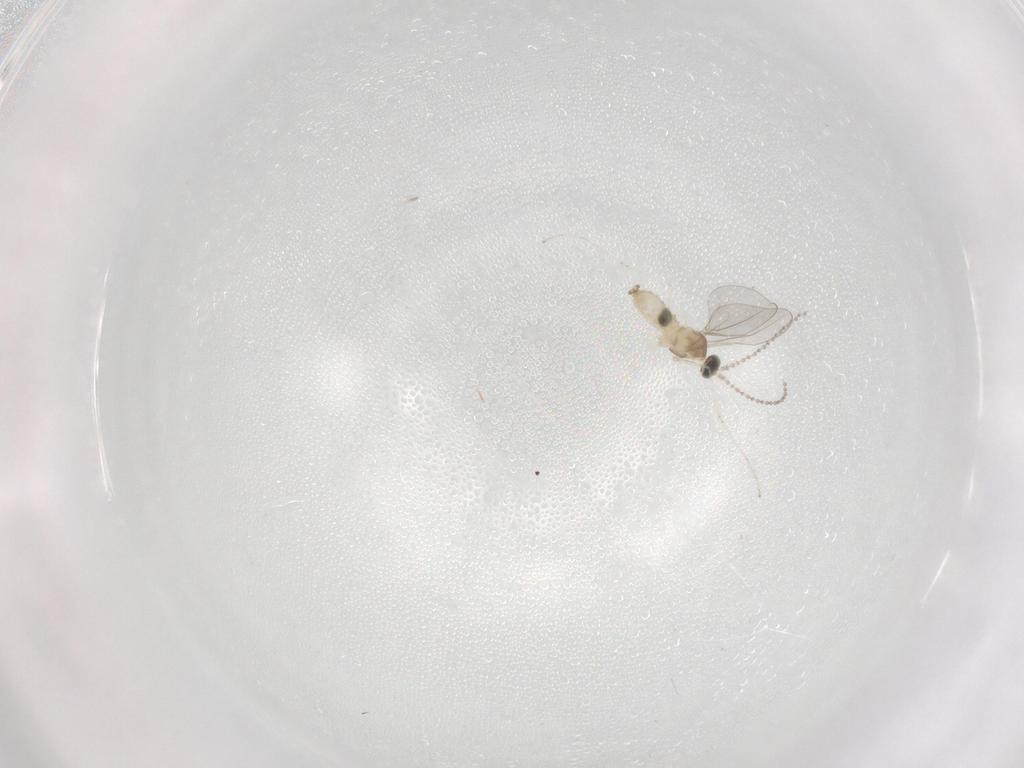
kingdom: Animalia
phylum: Arthropoda
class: Insecta
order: Diptera
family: Cecidomyiidae
